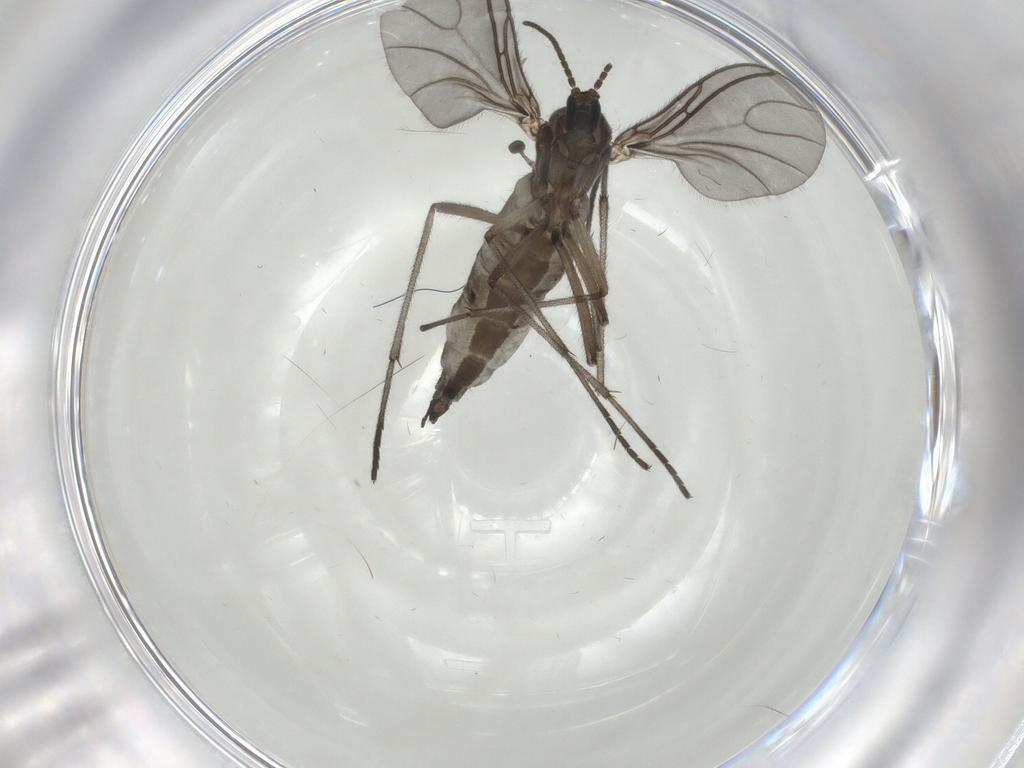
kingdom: Animalia
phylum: Arthropoda
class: Insecta
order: Diptera
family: Sciaridae
